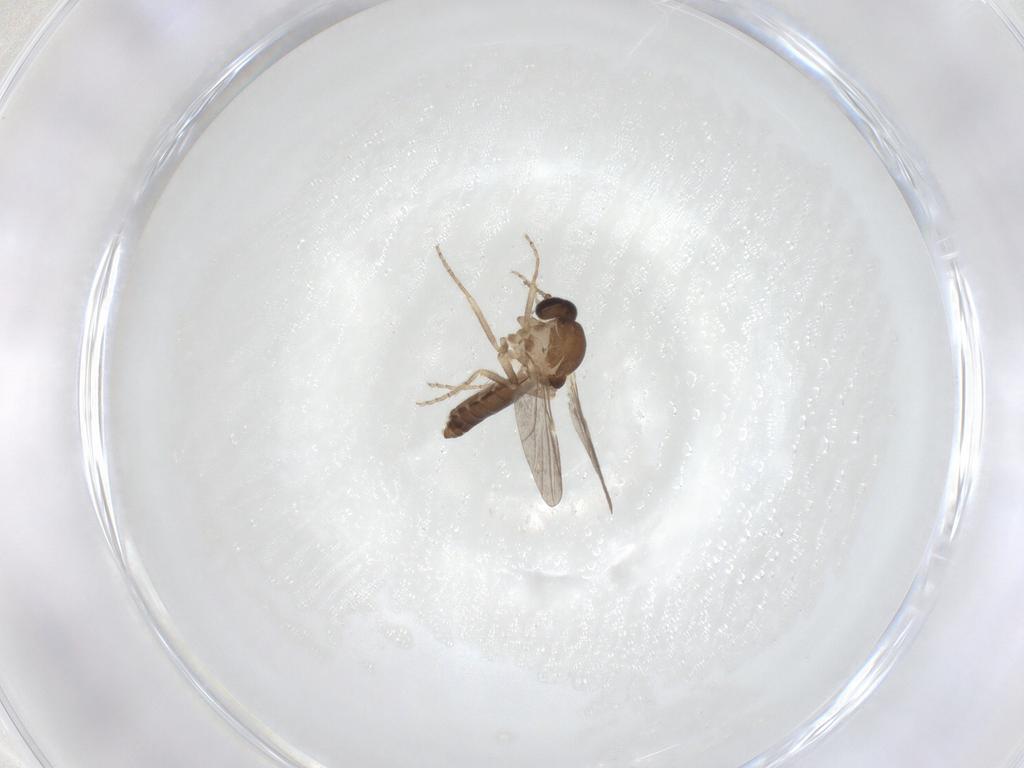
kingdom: Animalia
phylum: Arthropoda
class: Insecta
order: Diptera
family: Ceratopogonidae
